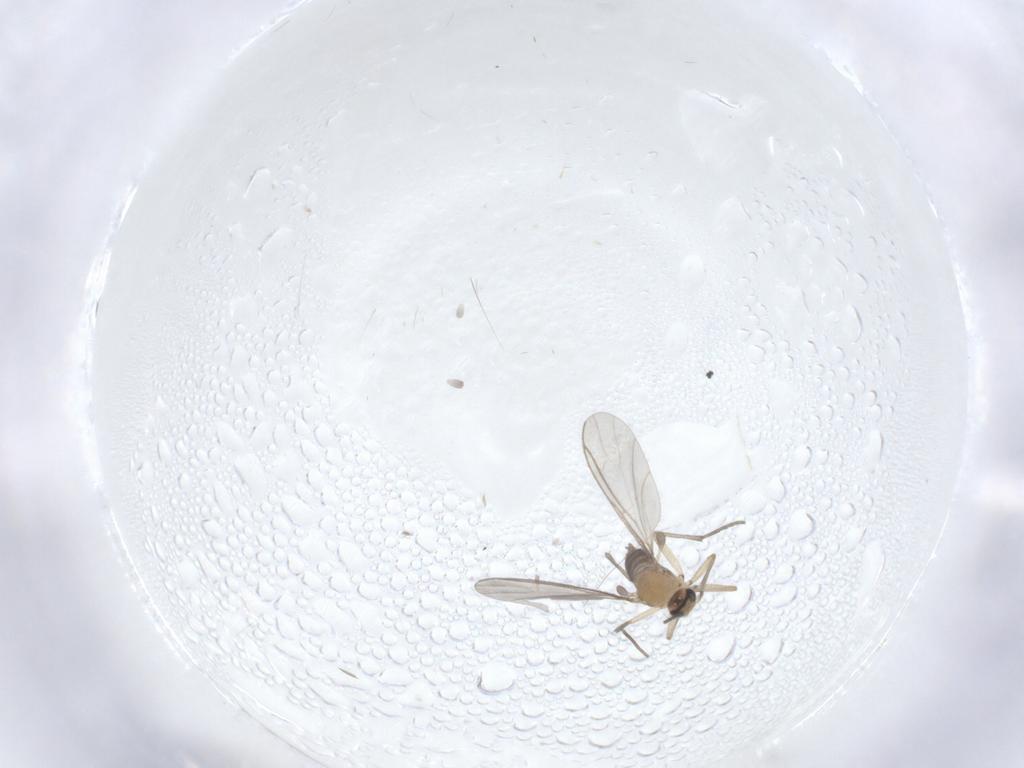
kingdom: Animalia
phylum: Arthropoda
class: Insecta
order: Diptera
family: Sciaridae
